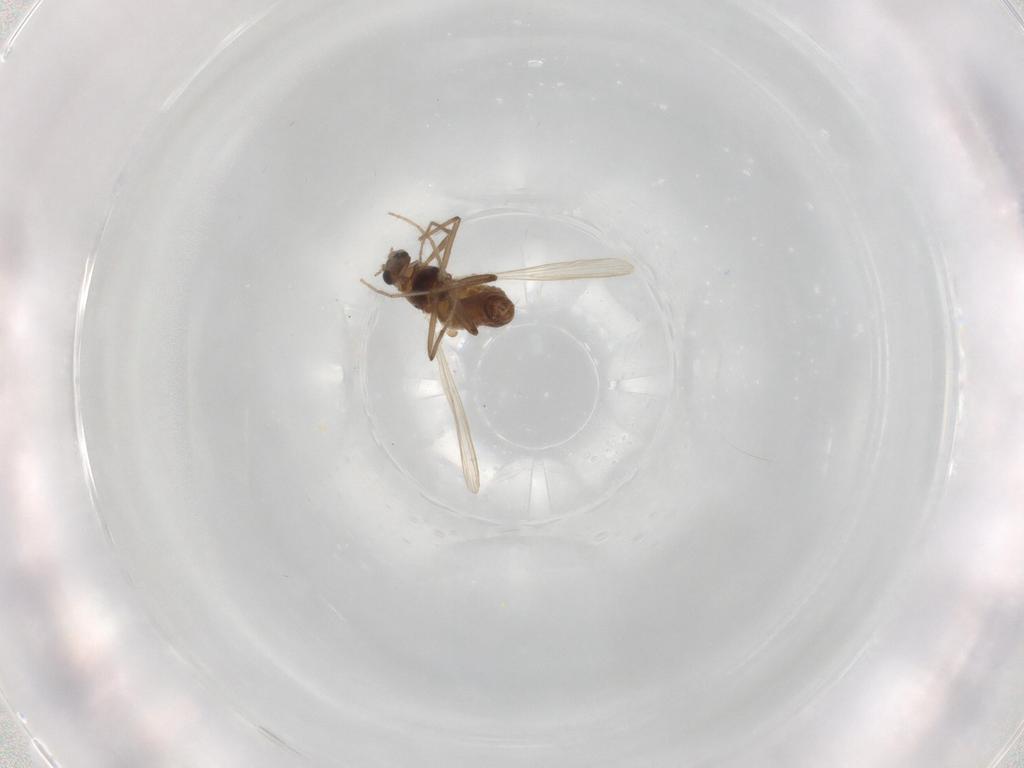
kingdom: Animalia
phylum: Arthropoda
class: Insecta
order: Diptera
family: Chironomidae
